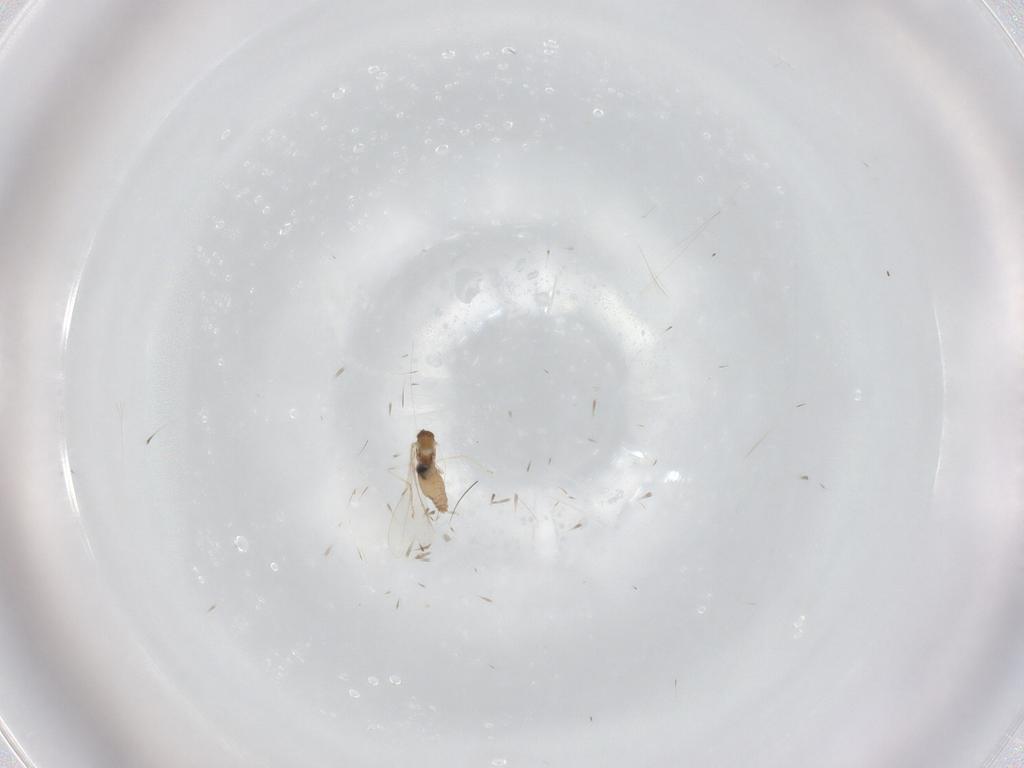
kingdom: Animalia
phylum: Arthropoda
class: Insecta
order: Diptera
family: Cecidomyiidae
